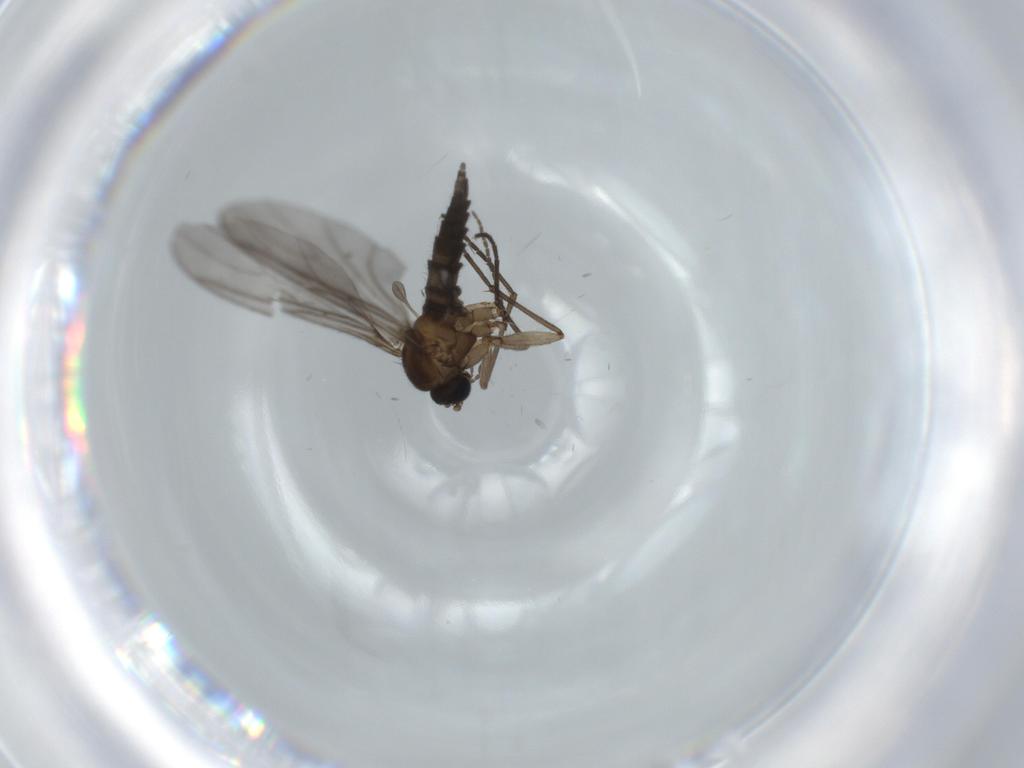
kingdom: Animalia
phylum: Arthropoda
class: Insecta
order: Diptera
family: Sciaridae
